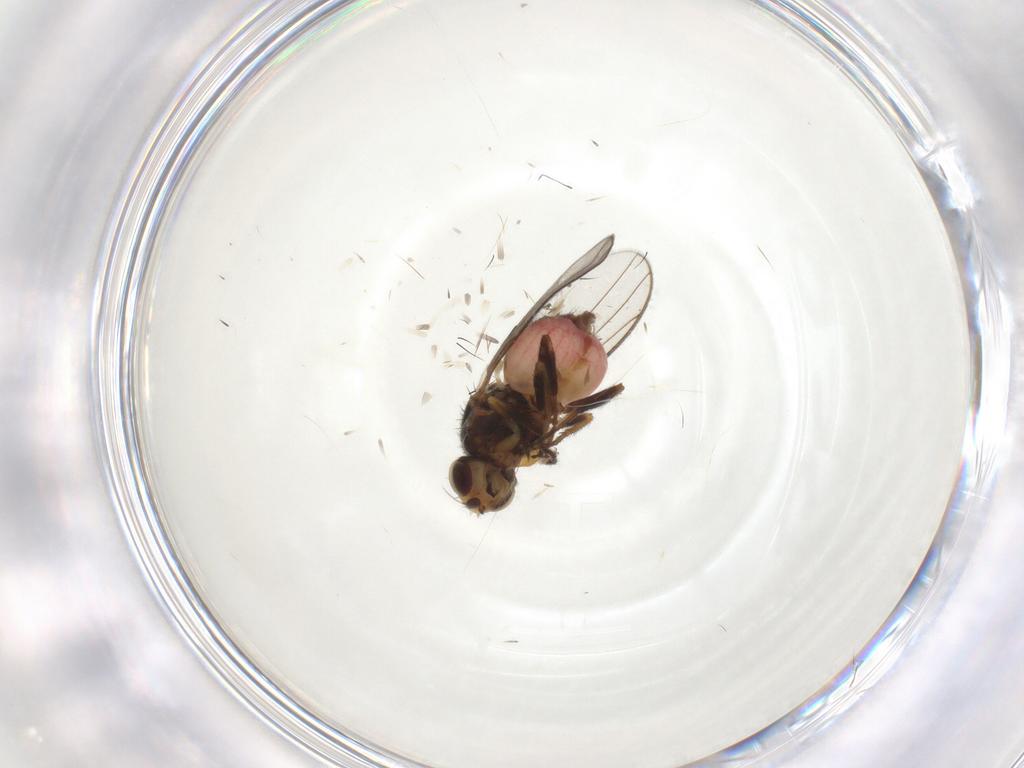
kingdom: Animalia
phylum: Arthropoda
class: Insecta
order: Diptera
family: Chloropidae
